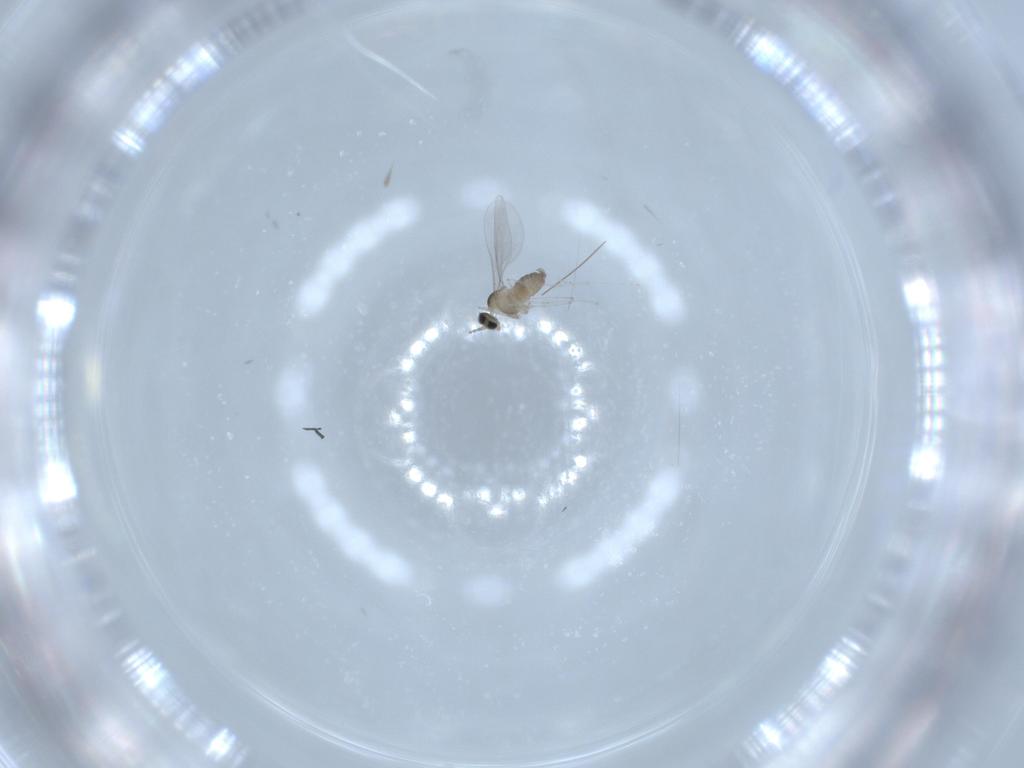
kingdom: Animalia
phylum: Arthropoda
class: Insecta
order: Diptera
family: Cecidomyiidae
